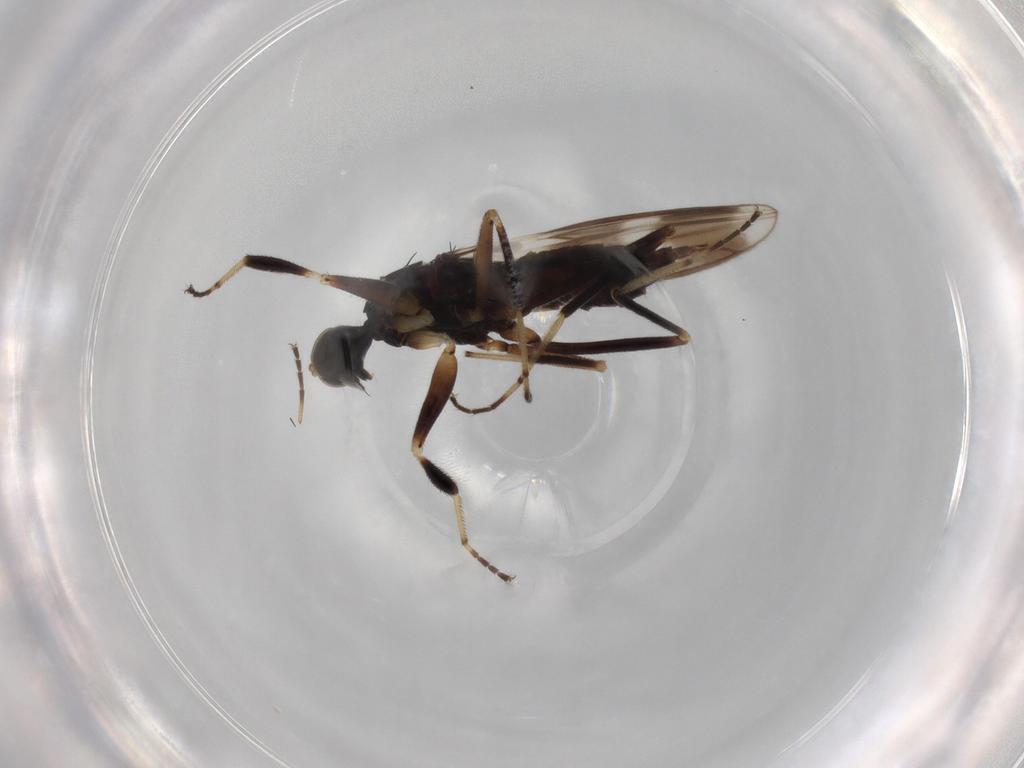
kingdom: Animalia
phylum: Arthropoda
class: Insecta
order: Diptera
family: Hybotidae
